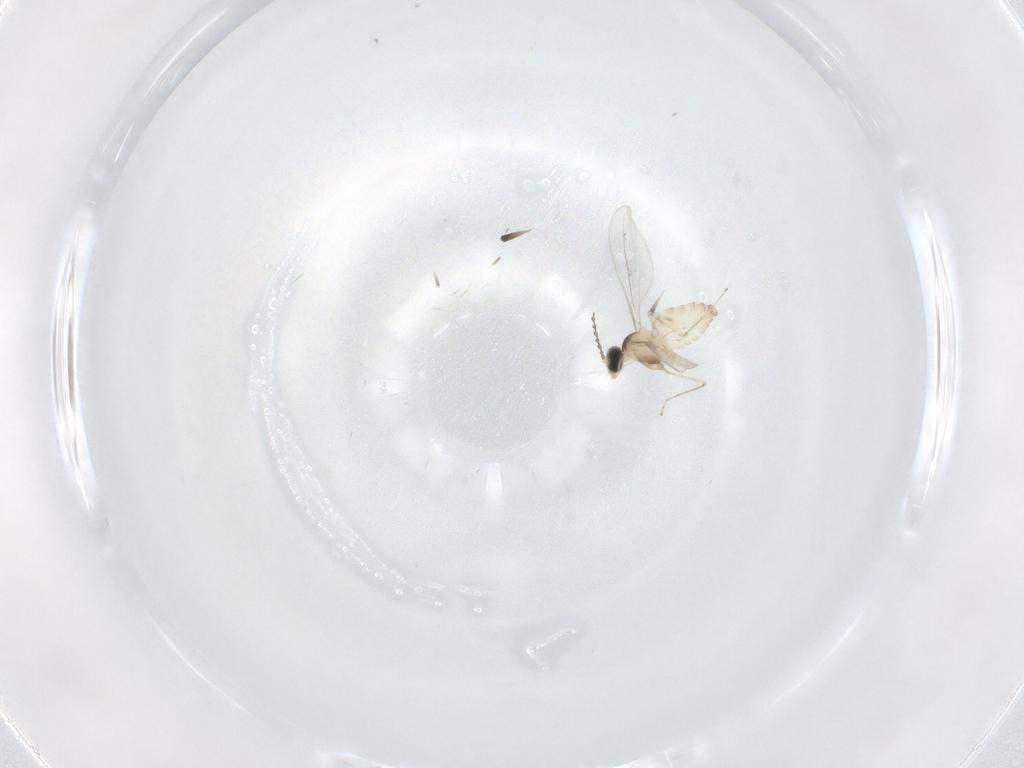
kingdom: Animalia
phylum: Arthropoda
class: Insecta
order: Diptera
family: Cecidomyiidae
